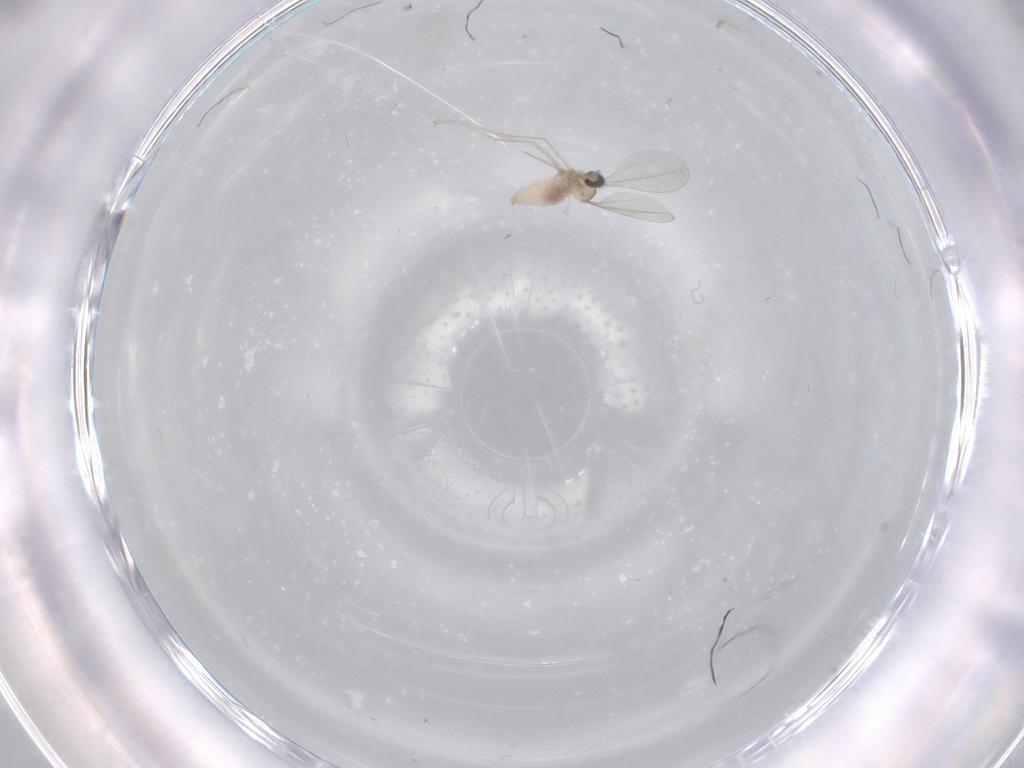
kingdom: Animalia
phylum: Arthropoda
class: Insecta
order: Diptera
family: Cecidomyiidae
